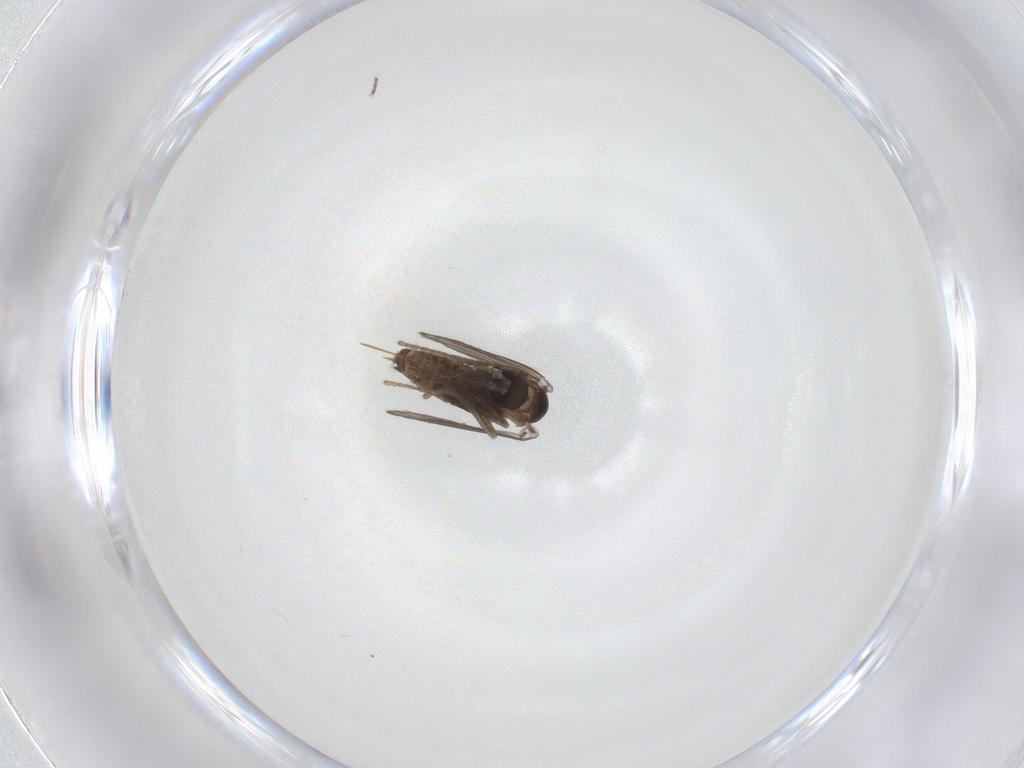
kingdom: Animalia
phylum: Arthropoda
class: Insecta
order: Diptera
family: Psychodidae
